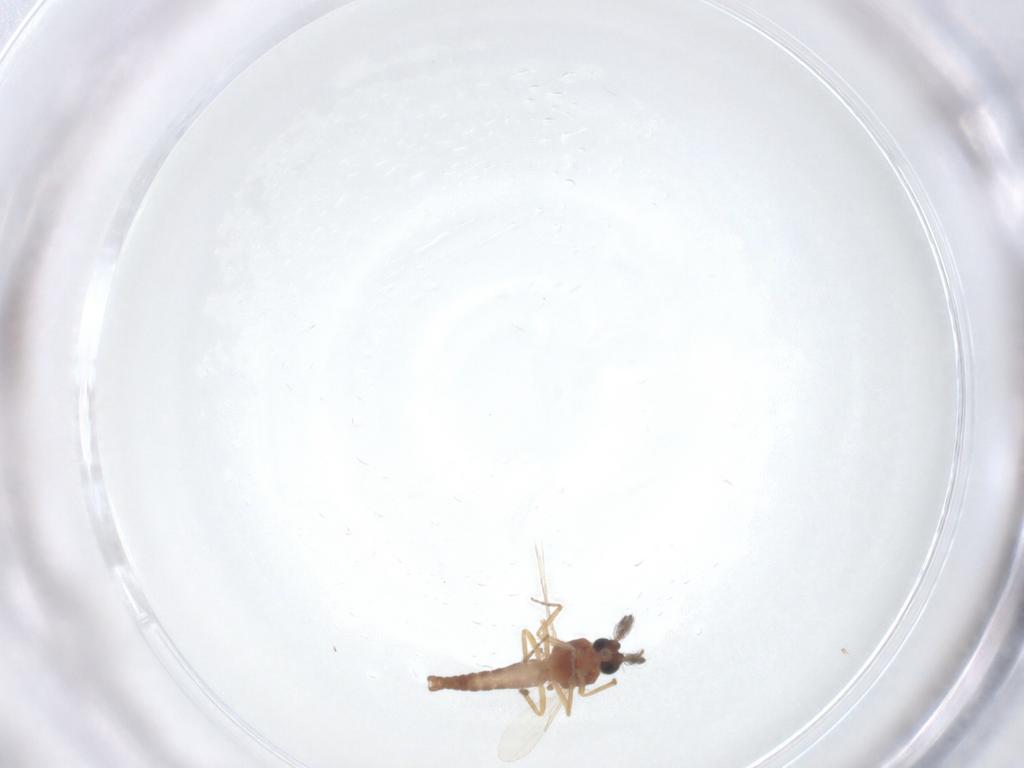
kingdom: Animalia
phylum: Arthropoda
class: Insecta
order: Diptera
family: Ceratopogonidae
